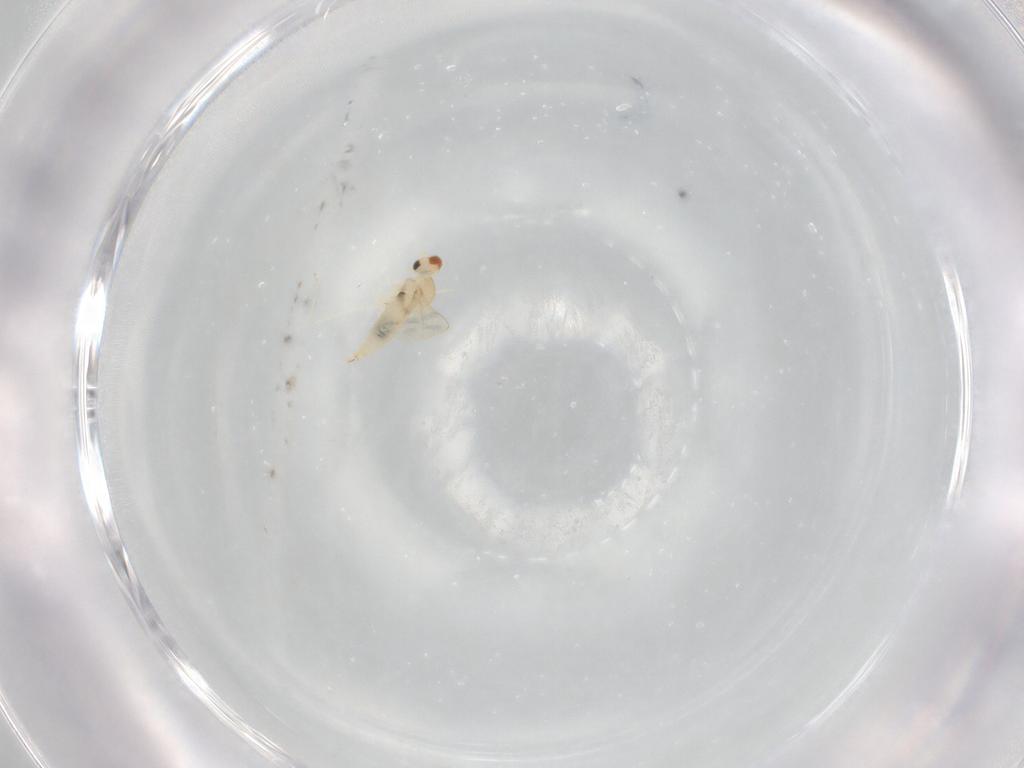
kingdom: Animalia
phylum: Arthropoda
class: Insecta
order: Diptera
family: Cecidomyiidae
